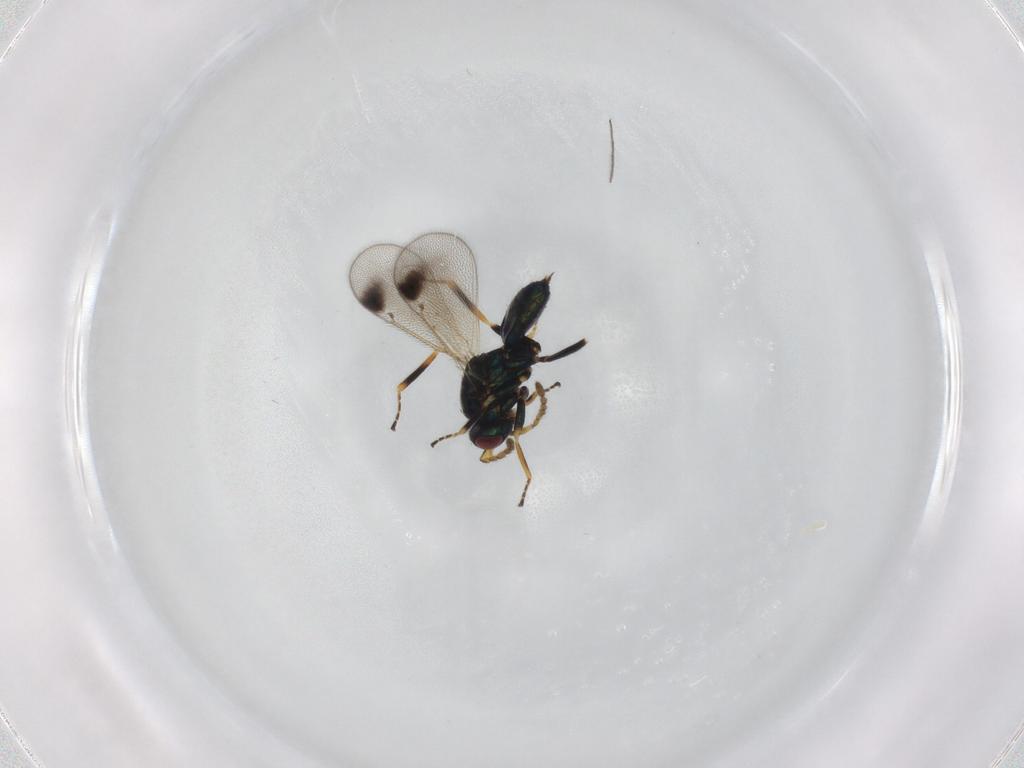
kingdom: Animalia
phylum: Arthropoda
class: Insecta
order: Hymenoptera
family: Eulophidae
